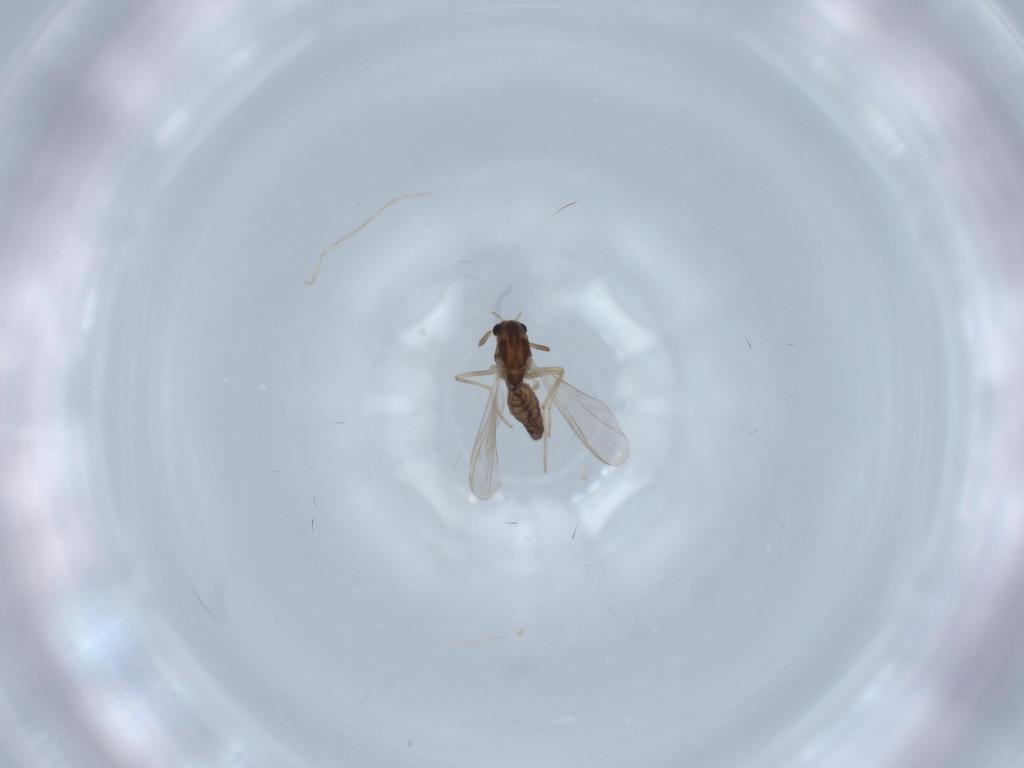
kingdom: Animalia
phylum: Arthropoda
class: Insecta
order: Diptera
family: Chironomidae
